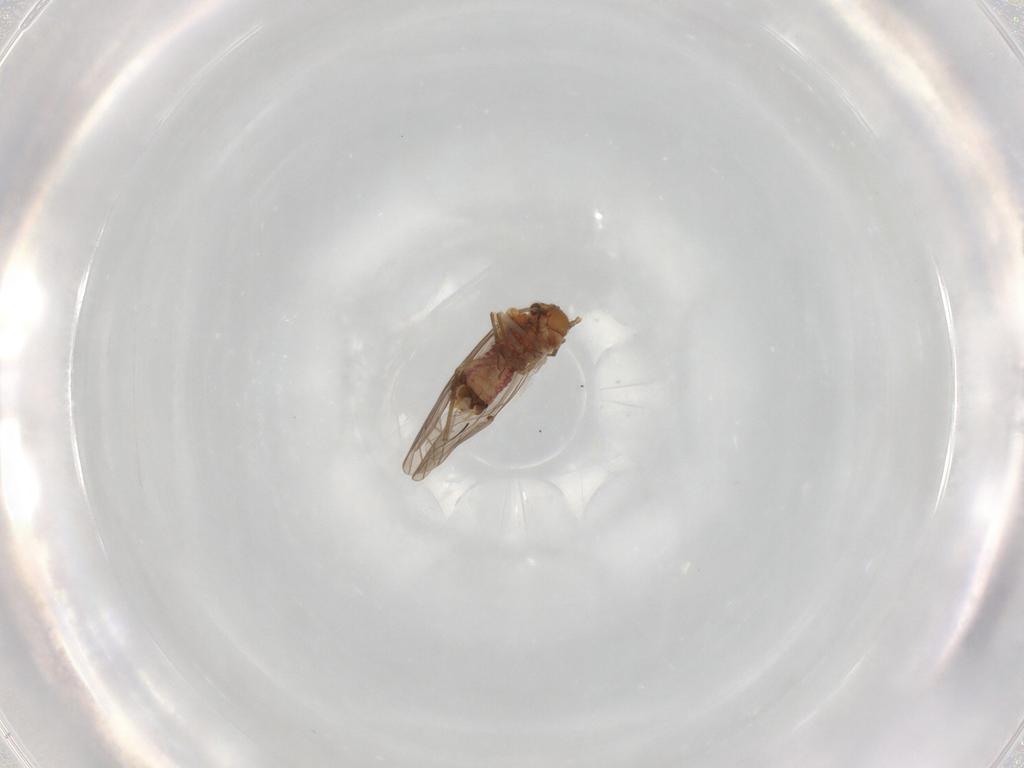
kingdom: Animalia
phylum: Arthropoda
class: Insecta
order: Psocodea
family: Lachesillidae
